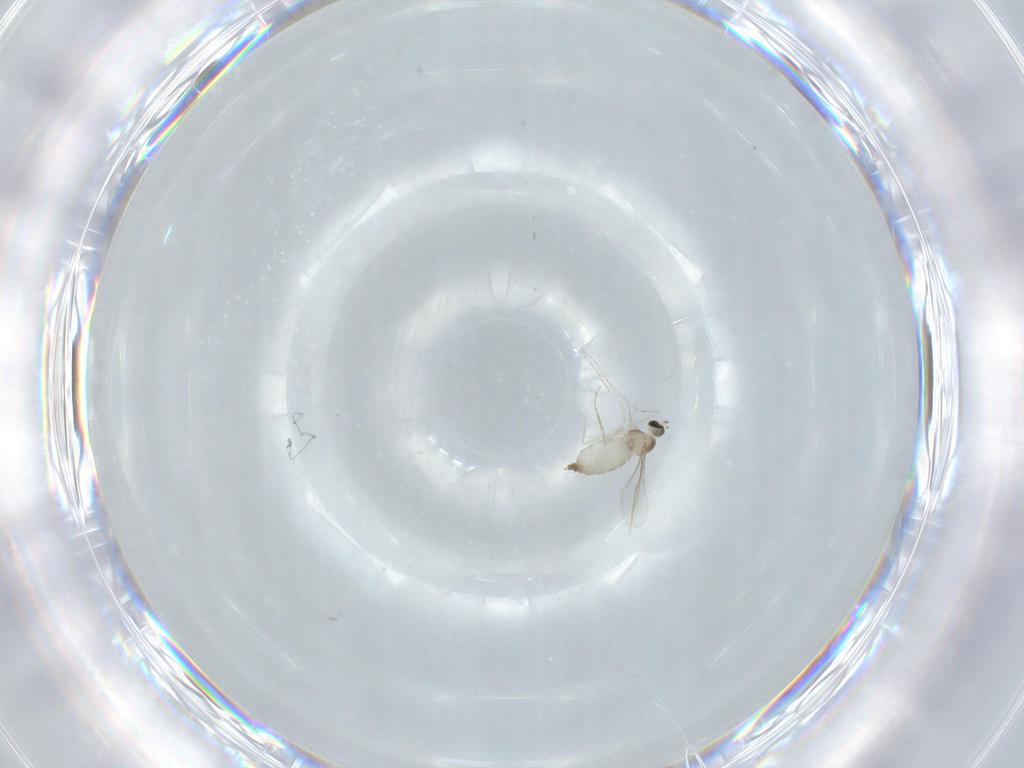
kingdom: Animalia
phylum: Arthropoda
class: Insecta
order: Diptera
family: Cecidomyiidae
